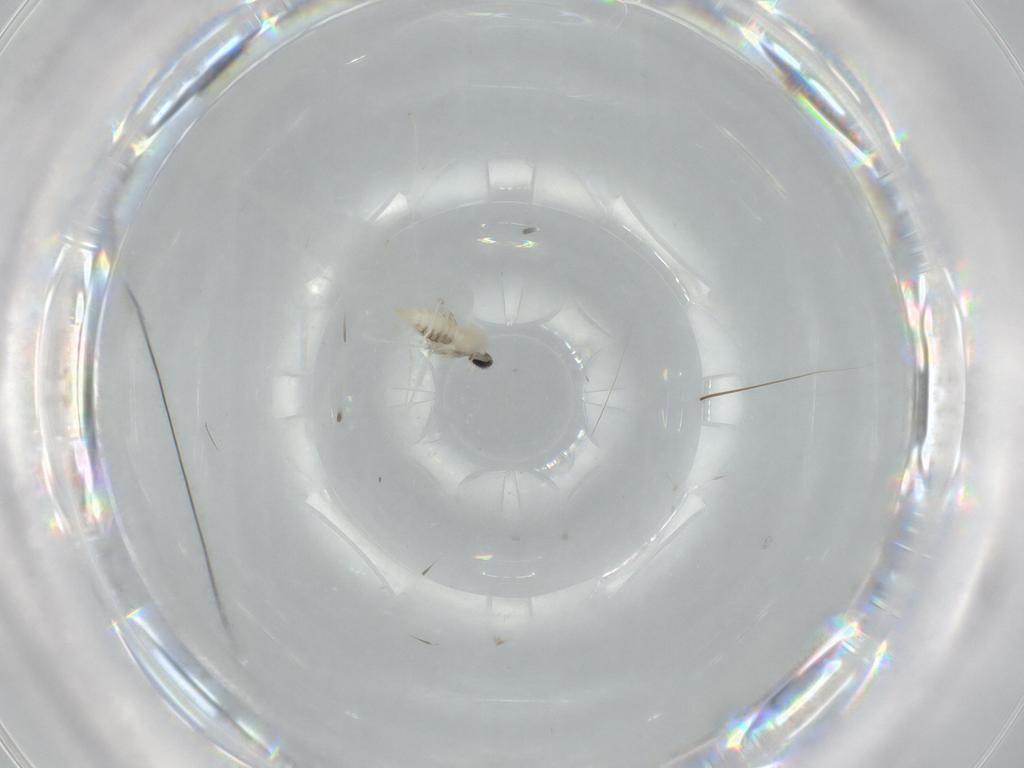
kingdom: Animalia
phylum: Arthropoda
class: Insecta
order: Diptera
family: Cecidomyiidae
